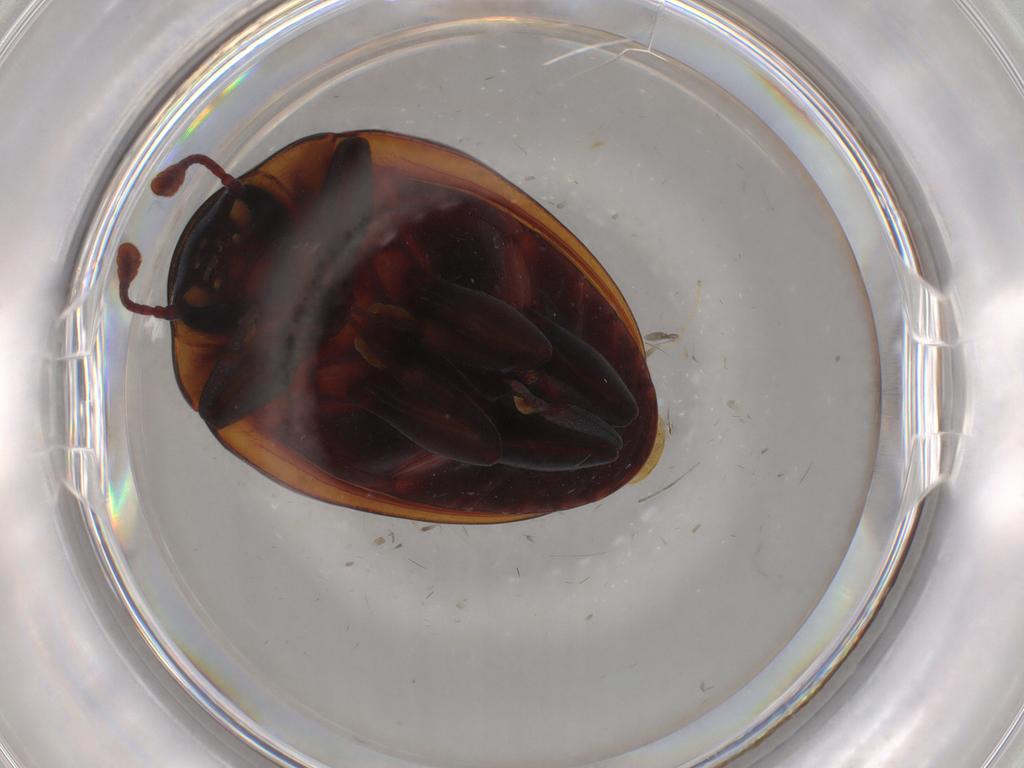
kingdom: Animalia
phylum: Arthropoda
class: Insecta
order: Coleoptera
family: Zopheridae
